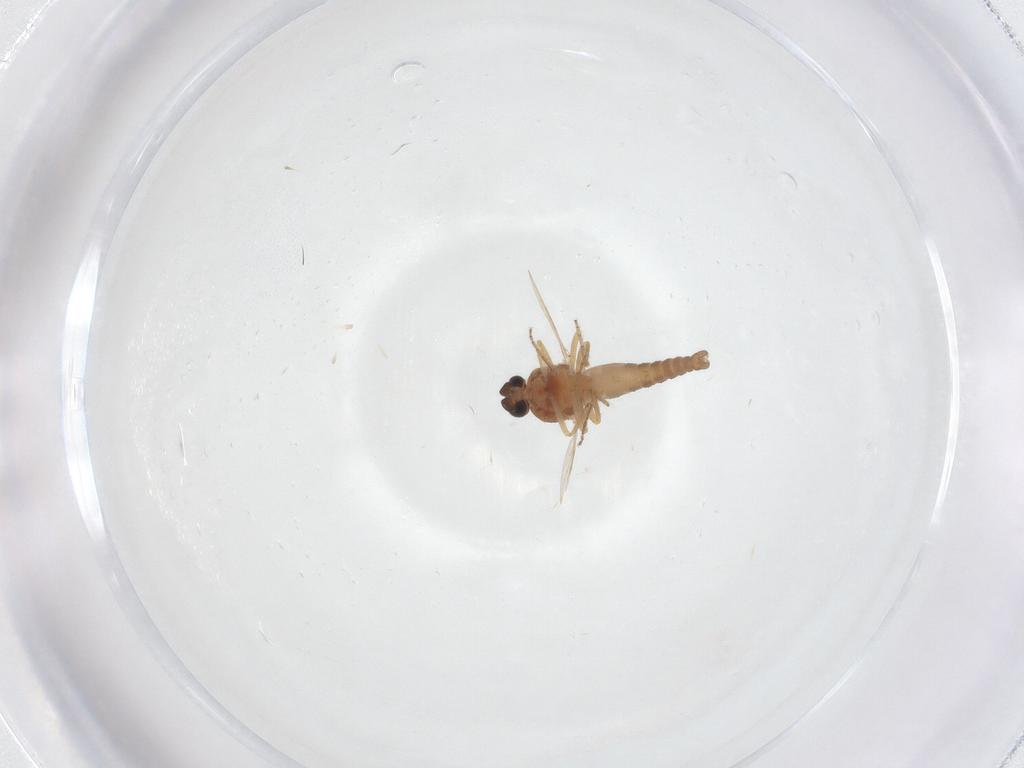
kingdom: Animalia
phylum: Arthropoda
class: Insecta
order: Diptera
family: Ceratopogonidae
